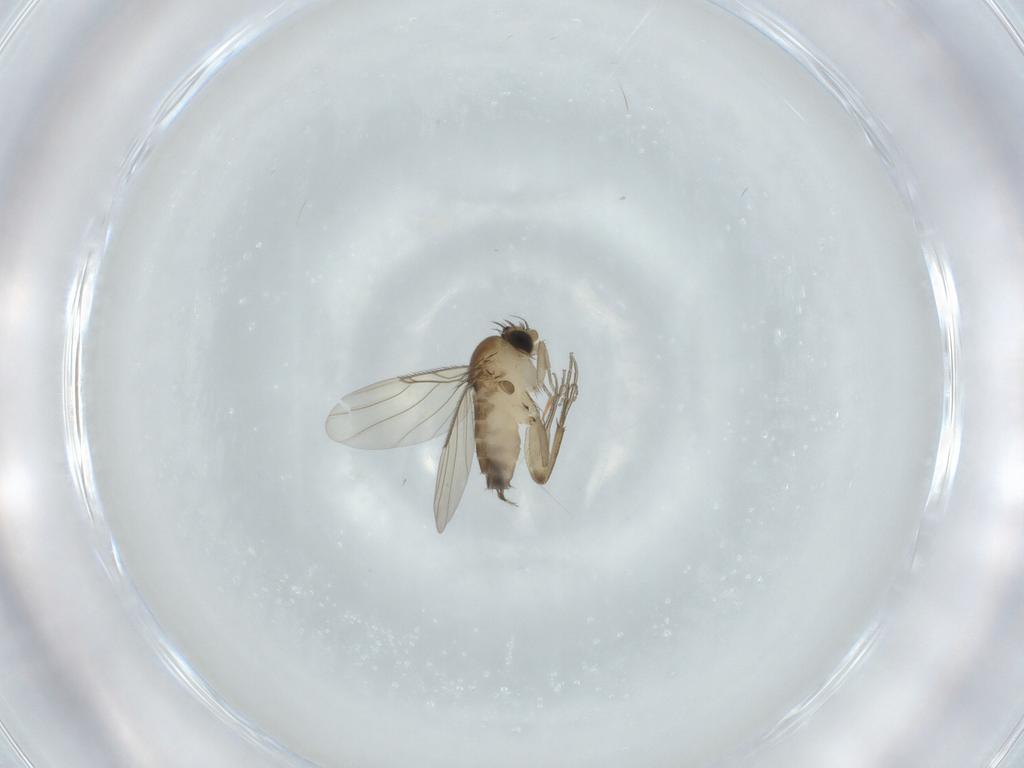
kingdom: Animalia
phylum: Arthropoda
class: Insecta
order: Diptera
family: Phoridae
